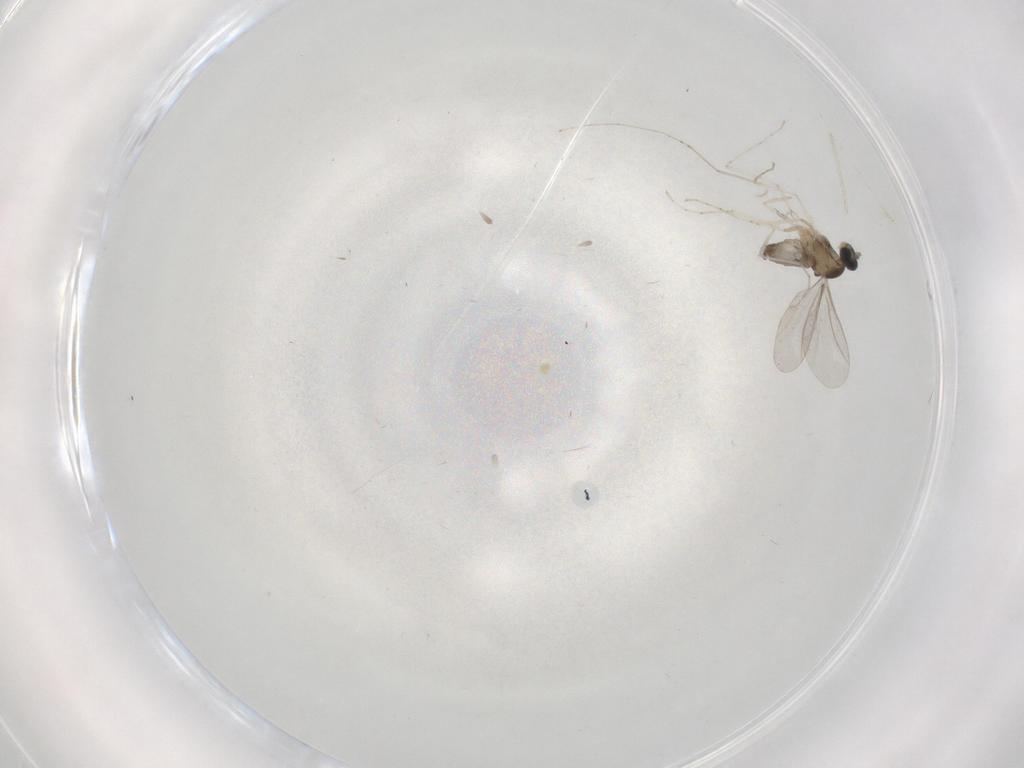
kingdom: Animalia
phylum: Arthropoda
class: Insecta
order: Diptera
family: Cecidomyiidae
